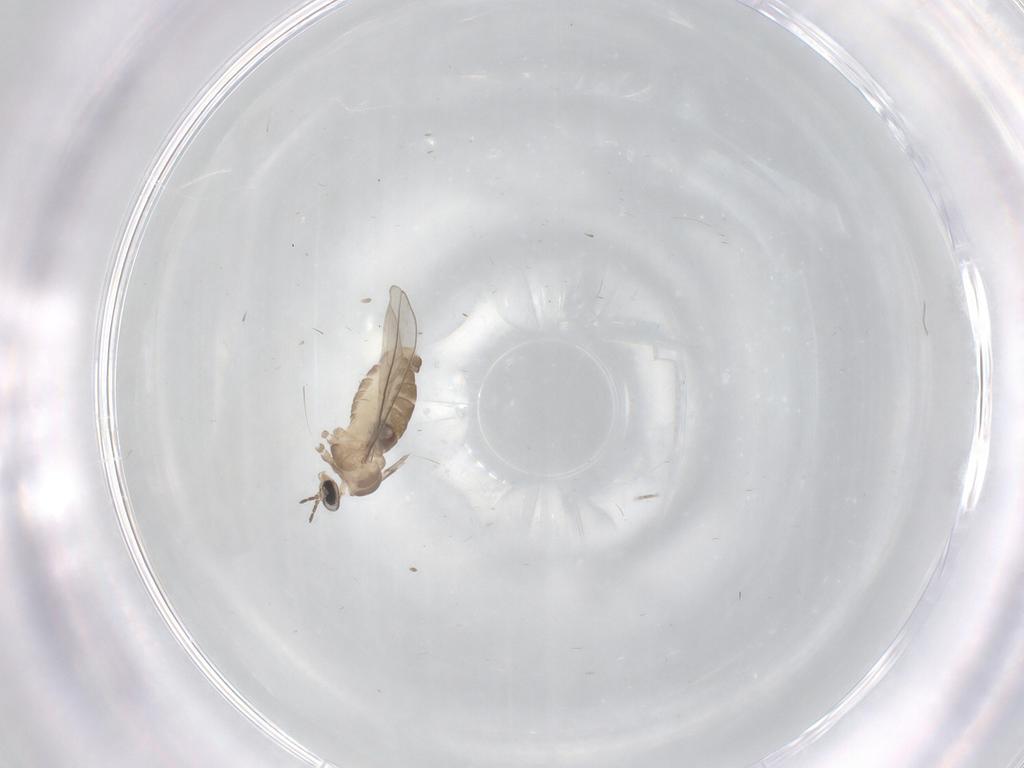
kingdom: Animalia
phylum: Arthropoda
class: Insecta
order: Diptera
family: Ceratopogonidae
